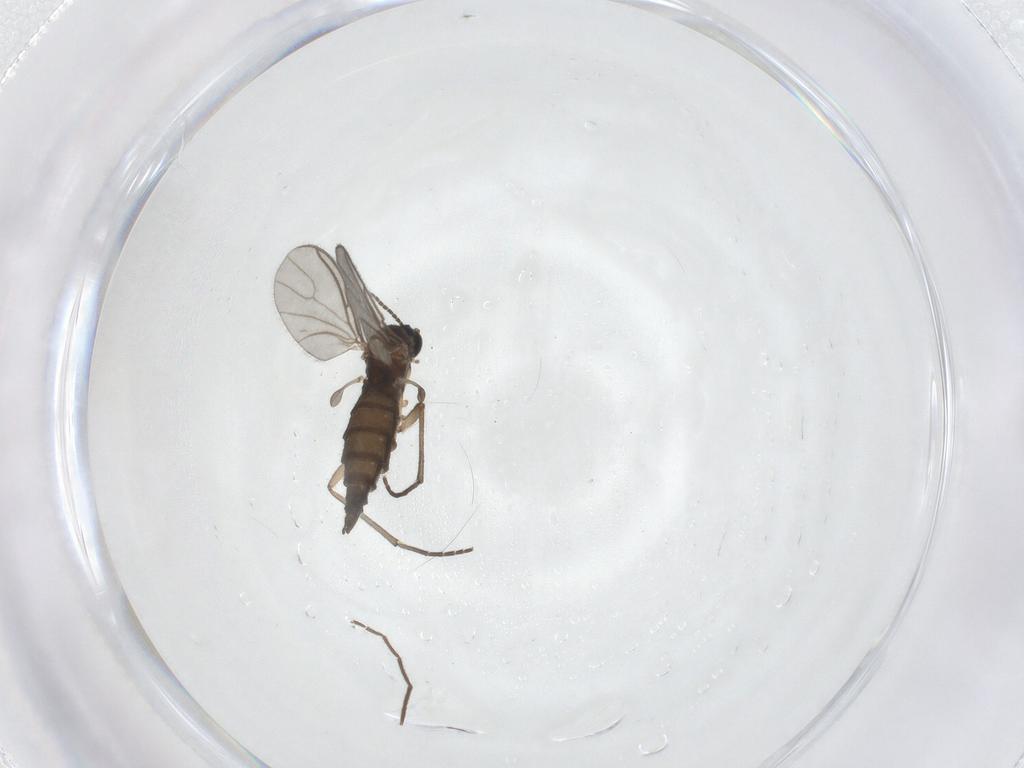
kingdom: Animalia
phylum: Arthropoda
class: Insecta
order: Diptera
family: Sciaridae
